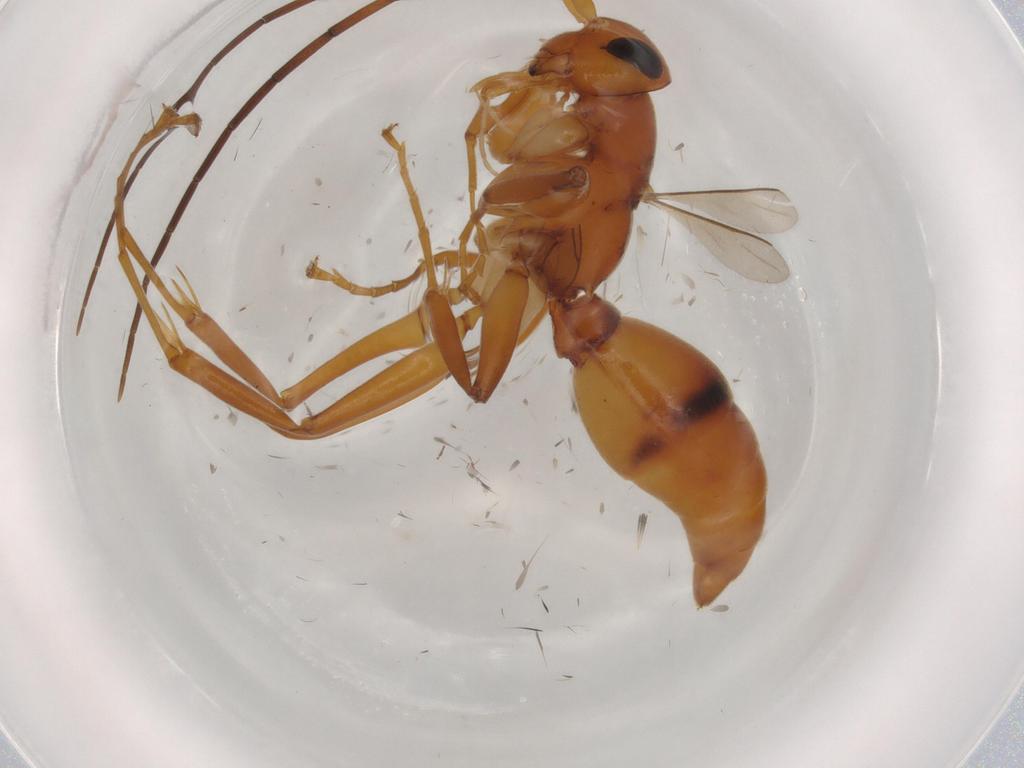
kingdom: Animalia
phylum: Arthropoda
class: Insecta
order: Hymenoptera
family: Rhopalosomatidae
